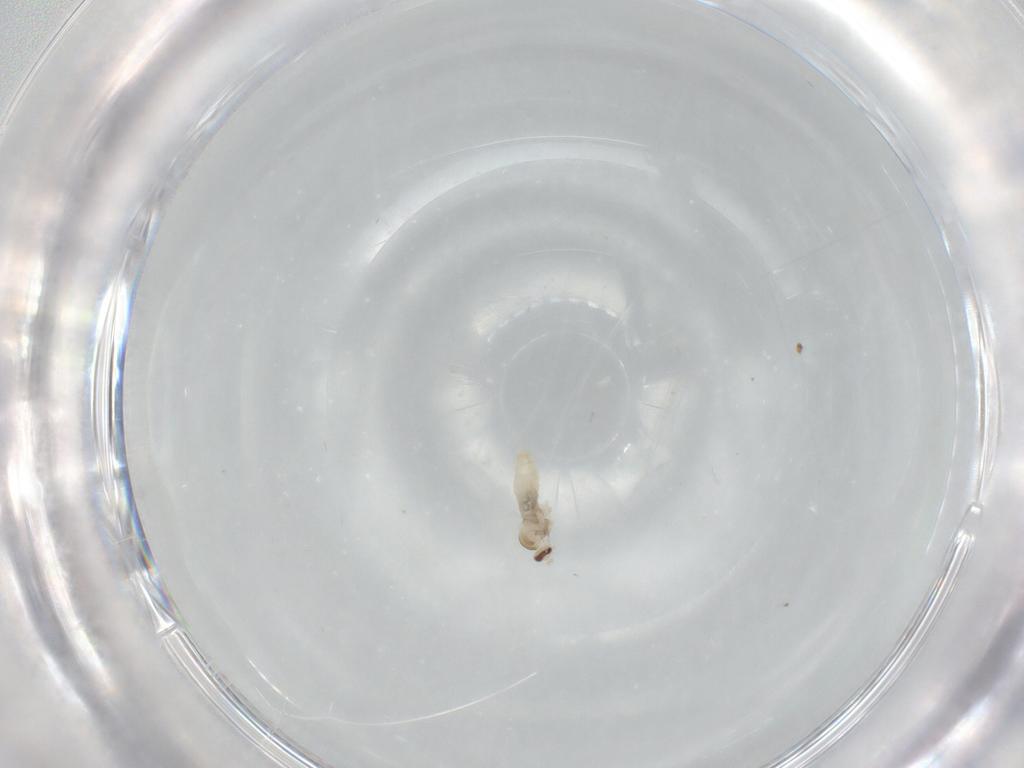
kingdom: Animalia
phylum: Arthropoda
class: Insecta
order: Diptera
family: Cecidomyiidae
